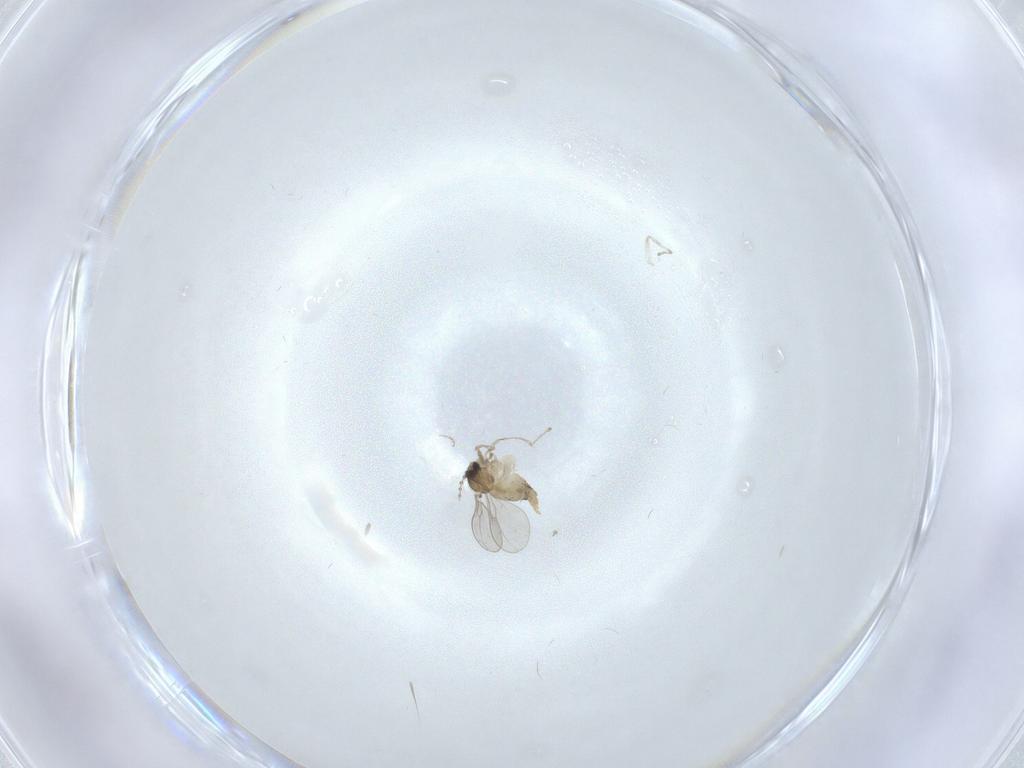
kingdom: Animalia
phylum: Arthropoda
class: Insecta
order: Diptera
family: Cecidomyiidae
